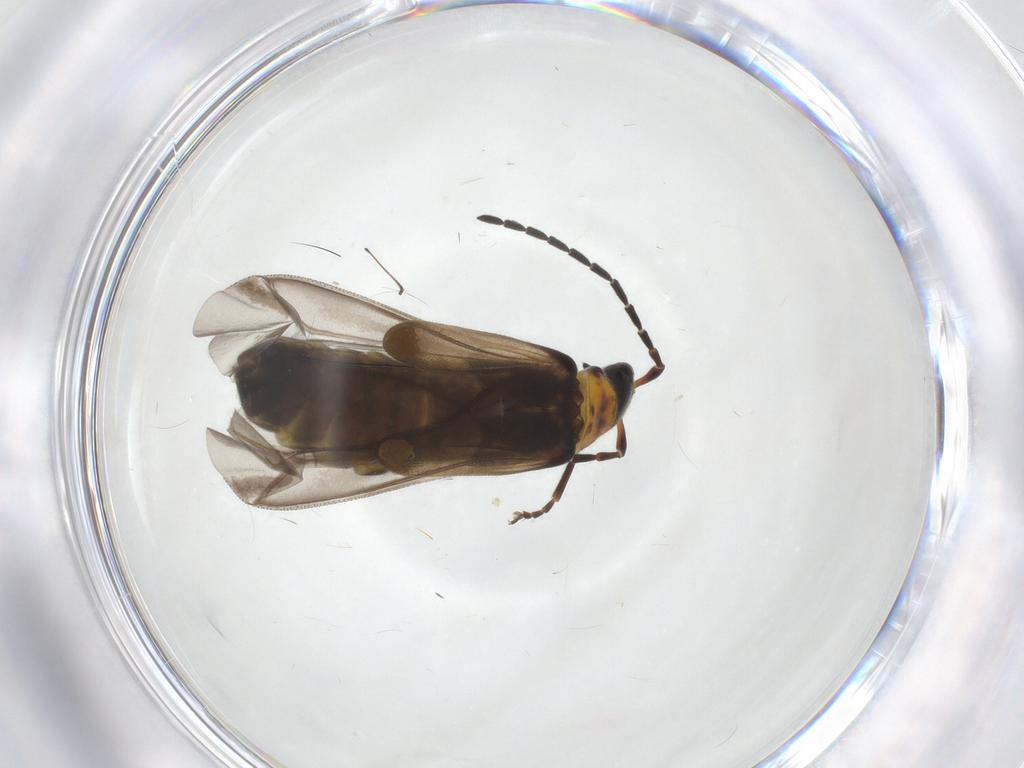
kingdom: Animalia
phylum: Arthropoda
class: Insecta
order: Coleoptera
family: Cantharidae
